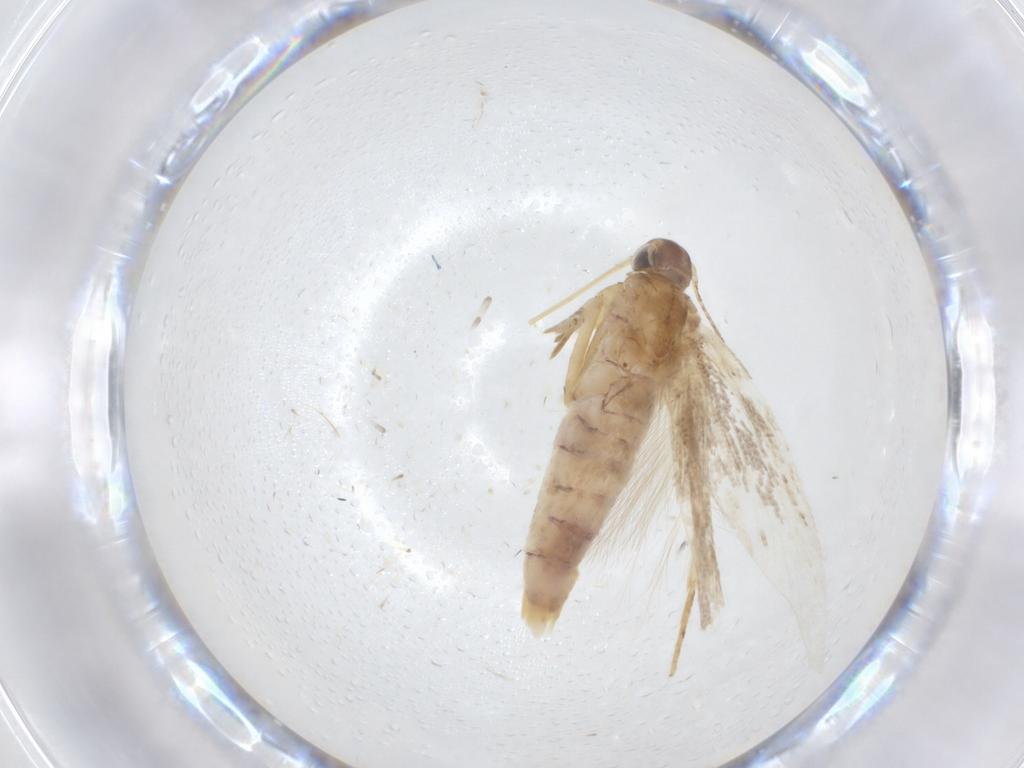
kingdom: Animalia
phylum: Arthropoda
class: Insecta
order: Lepidoptera
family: Gelechiidae
